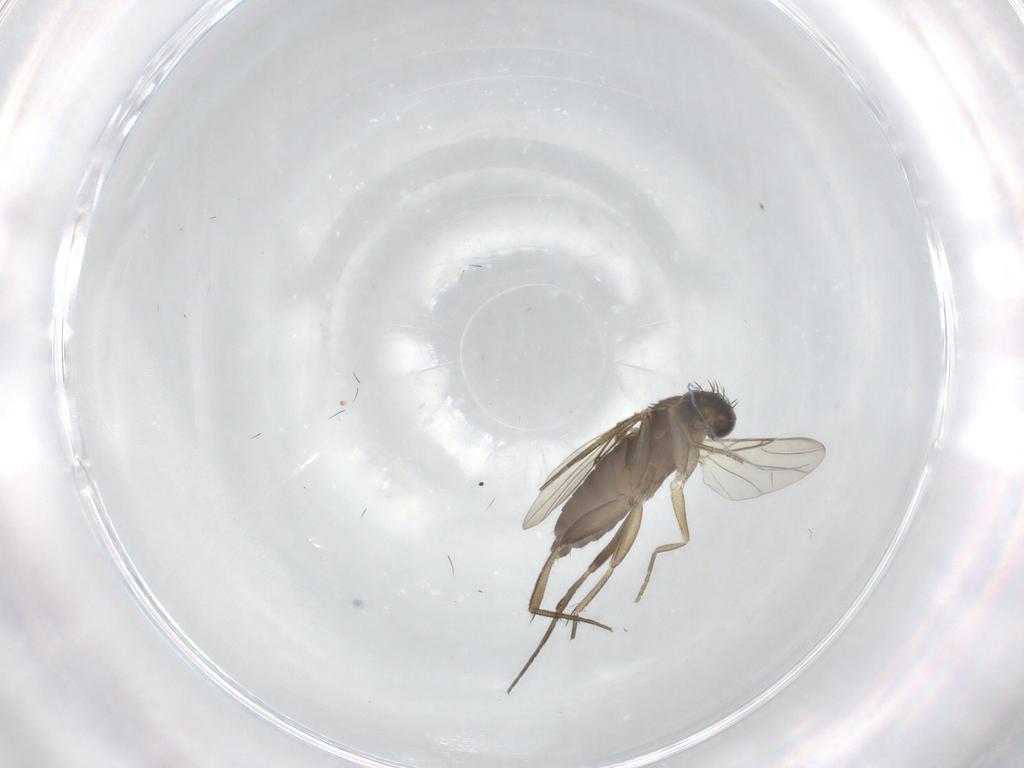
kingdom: Animalia
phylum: Arthropoda
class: Insecta
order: Diptera
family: Phoridae
